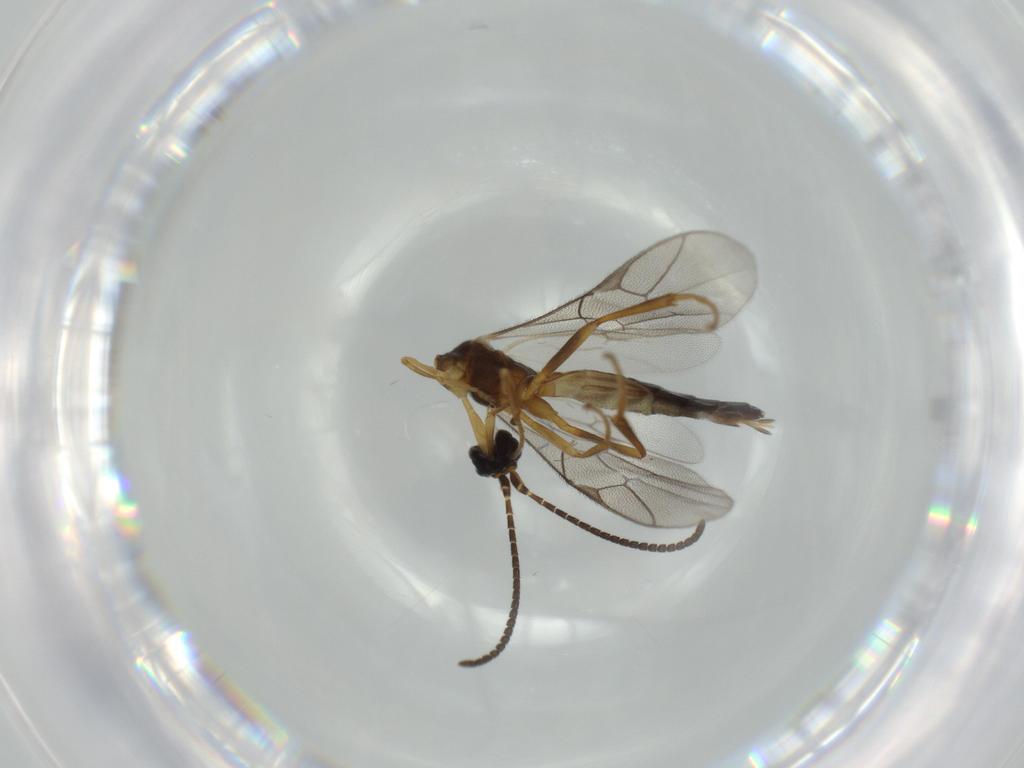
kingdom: Animalia
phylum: Arthropoda
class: Insecta
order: Hymenoptera
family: Ichneumonidae
